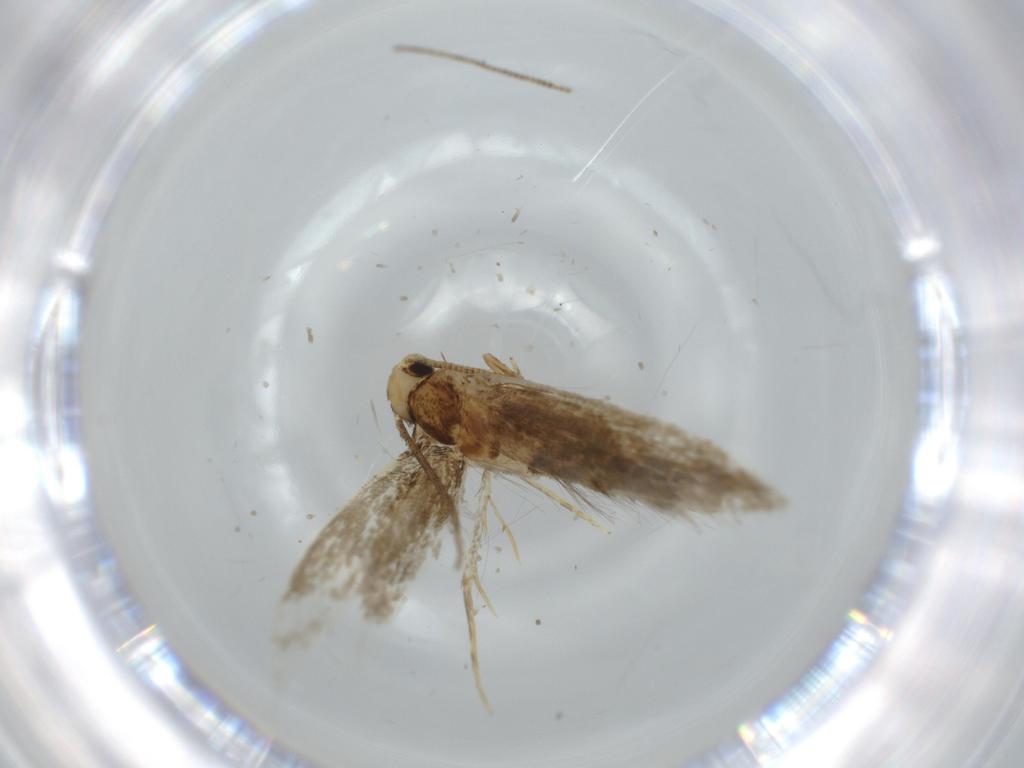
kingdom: Animalia
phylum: Arthropoda
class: Insecta
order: Lepidoptera
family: Tineidae
